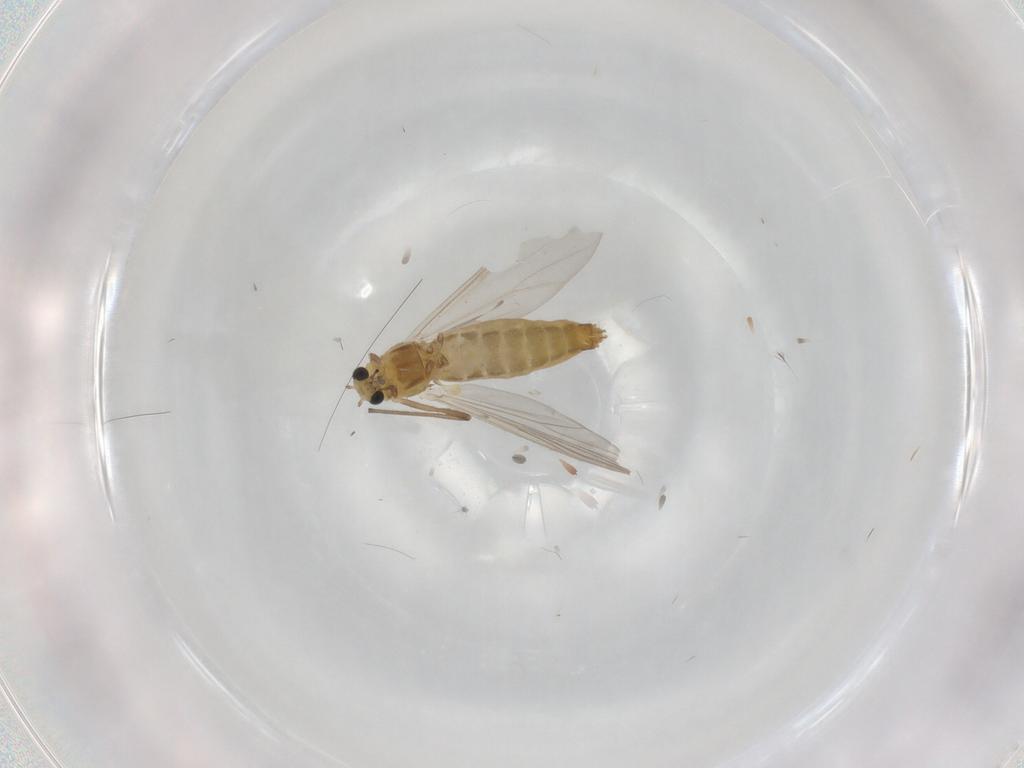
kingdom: Animalia
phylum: Arthropoda
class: Insecta
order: Diptera
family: Chironomidae
